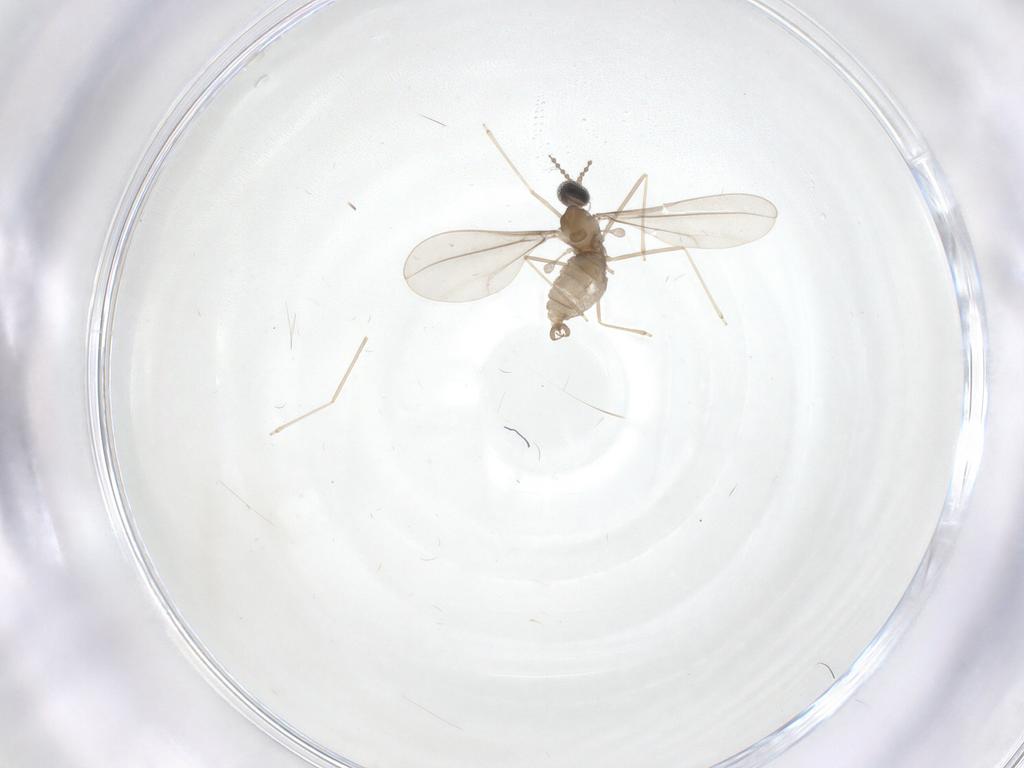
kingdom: Animalia
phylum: Arthropoda
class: Insecta
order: Diptera
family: Cecidomyiidae
